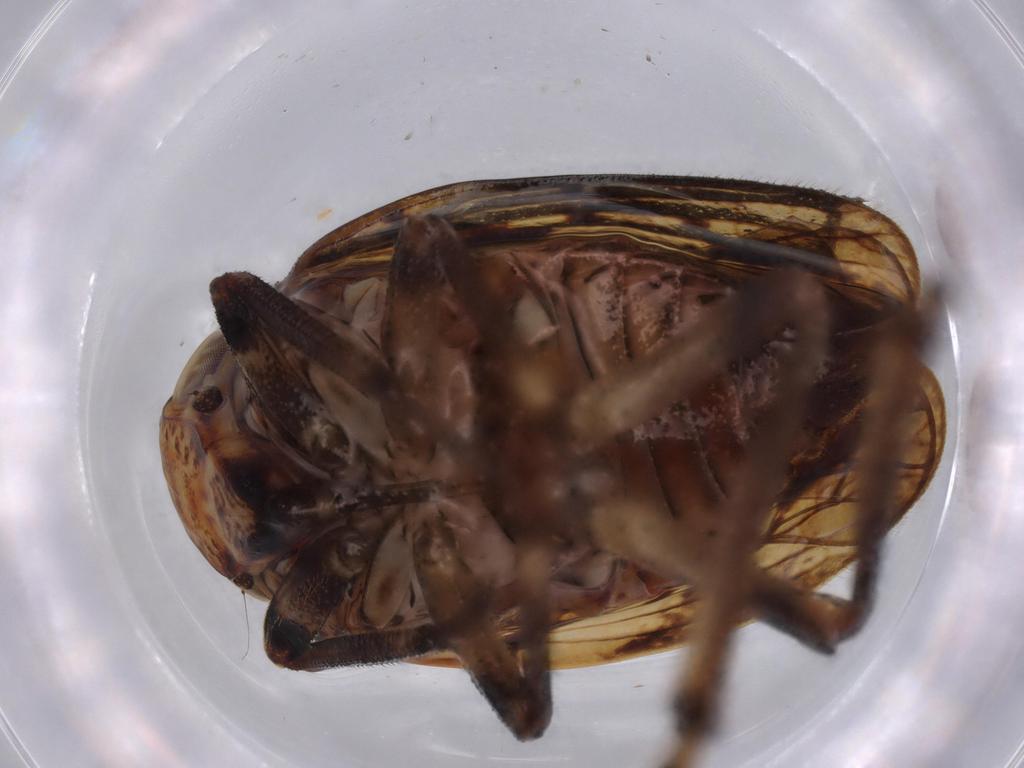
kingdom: Animalia
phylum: Arthropoda
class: Insecta
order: Hemiptera
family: Issidae
